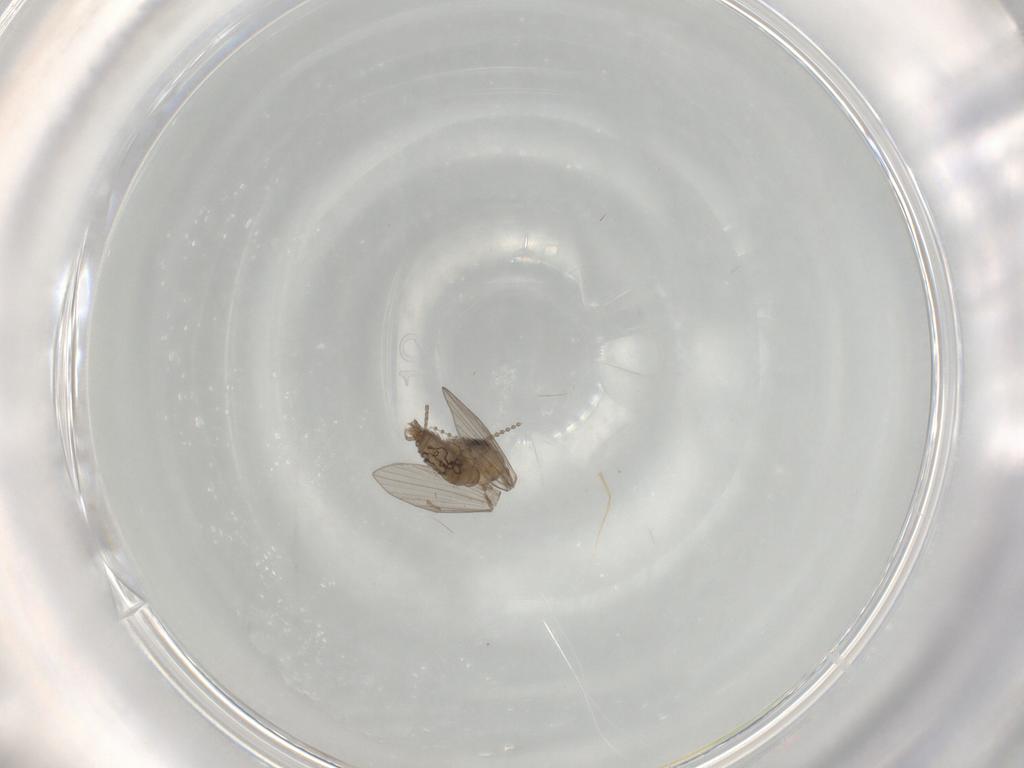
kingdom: Animalia
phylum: Arthropoda
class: Insecta
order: Diptera
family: Psychodidae
